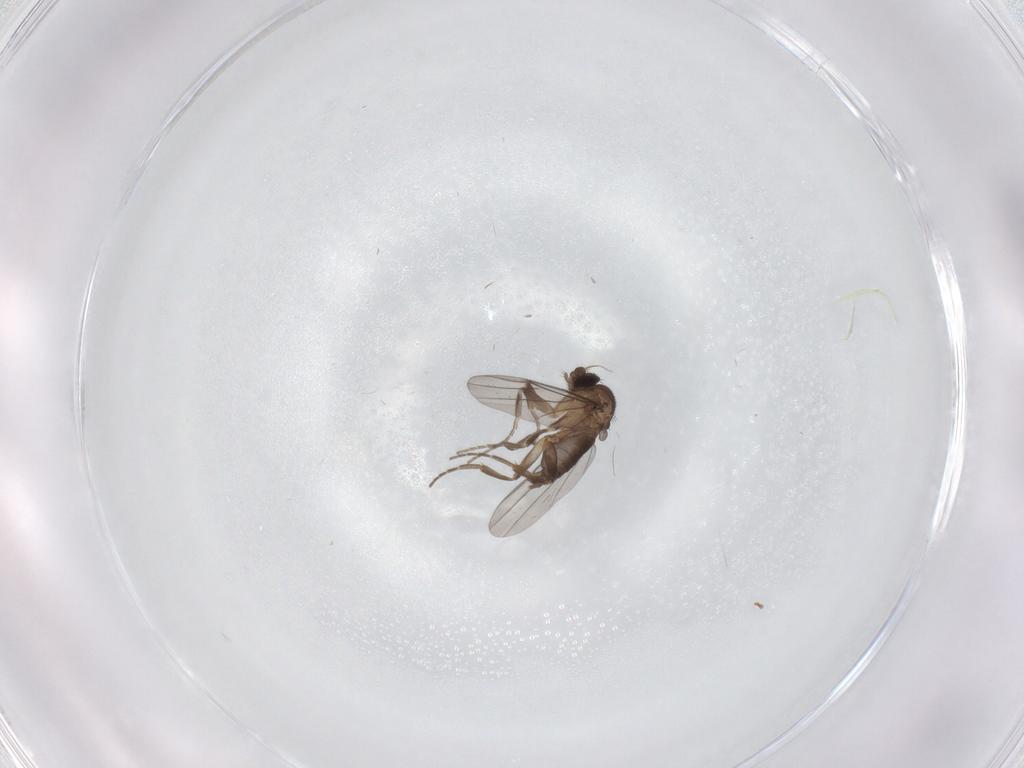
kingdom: Animalia
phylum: Arthropoda
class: Insecta
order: Diptera
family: Phoridae
